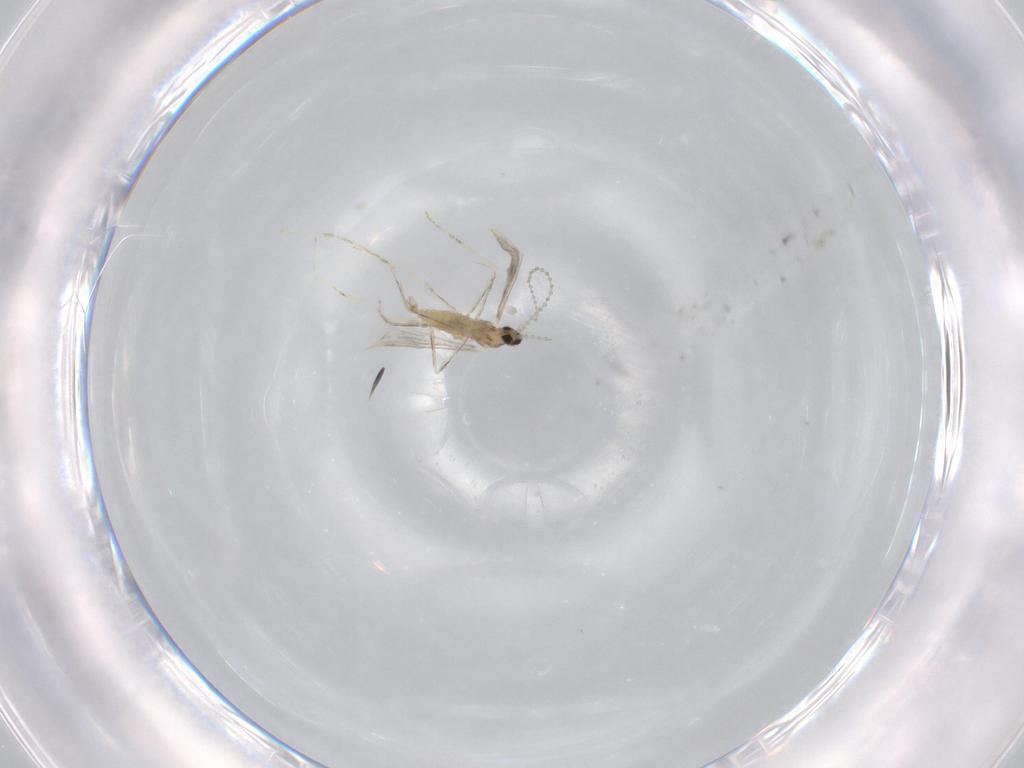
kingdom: Animalia
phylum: Arthropoda
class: Insecta
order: Diptera
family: Cecidomyiidae
